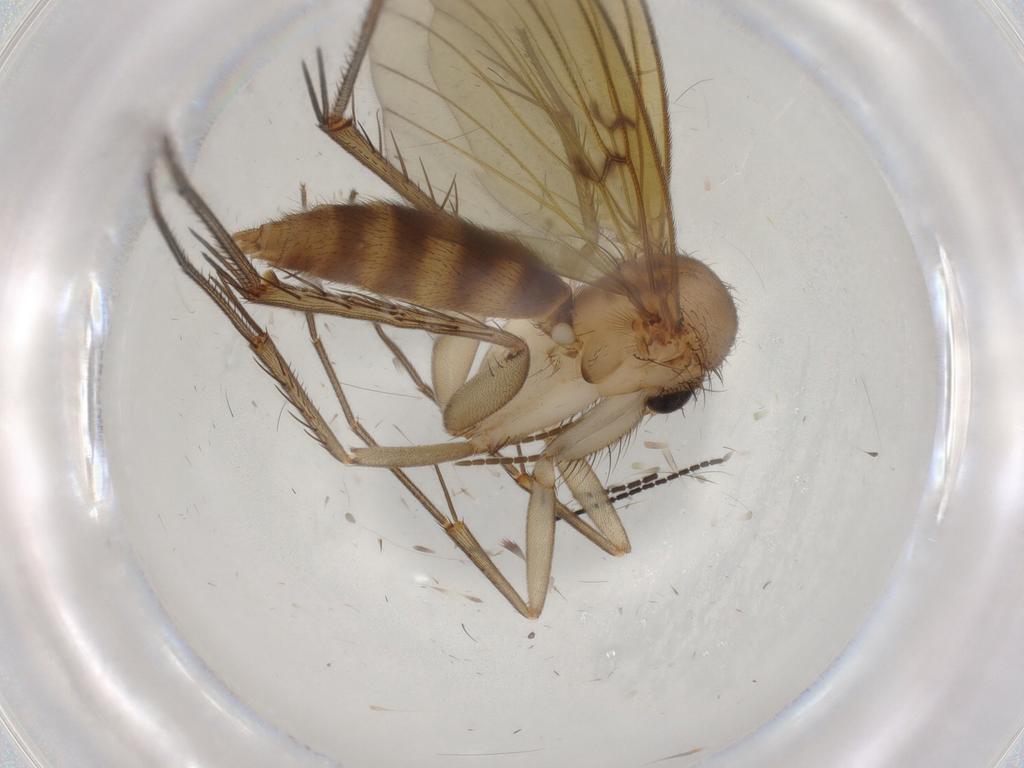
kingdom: Animalia
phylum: Arthropoda
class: Insecta
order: Diptera
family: Mycetophilidae
